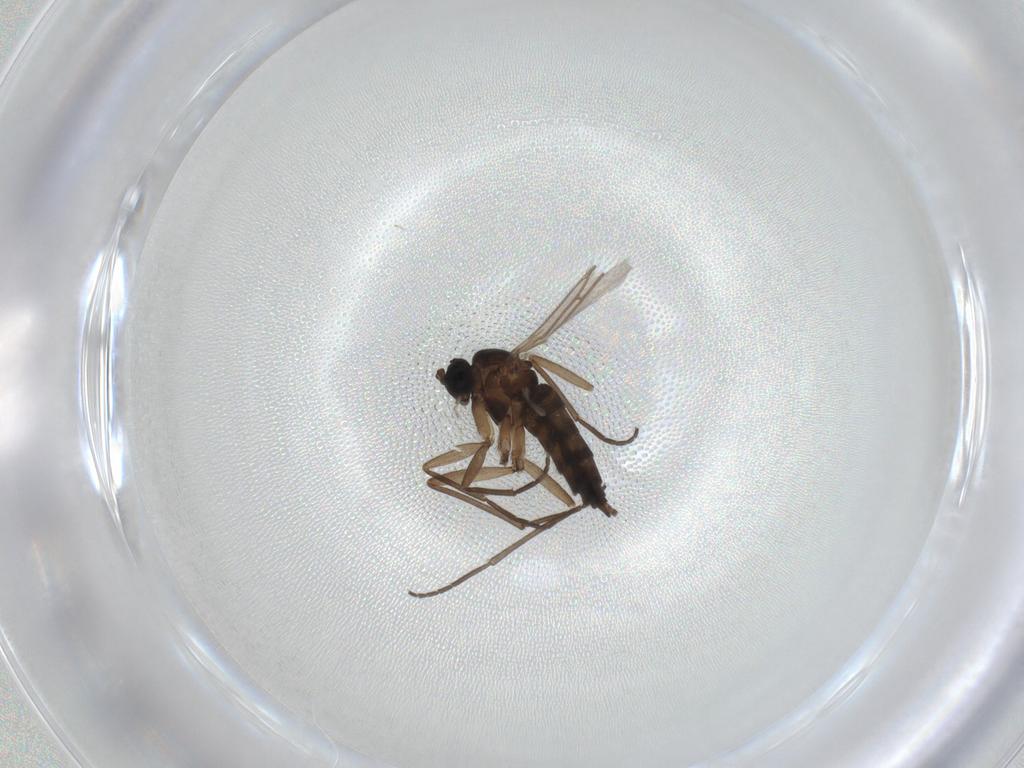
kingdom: Animalia
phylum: Arthropoda
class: Insecta
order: Diptera
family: Sciaridae
